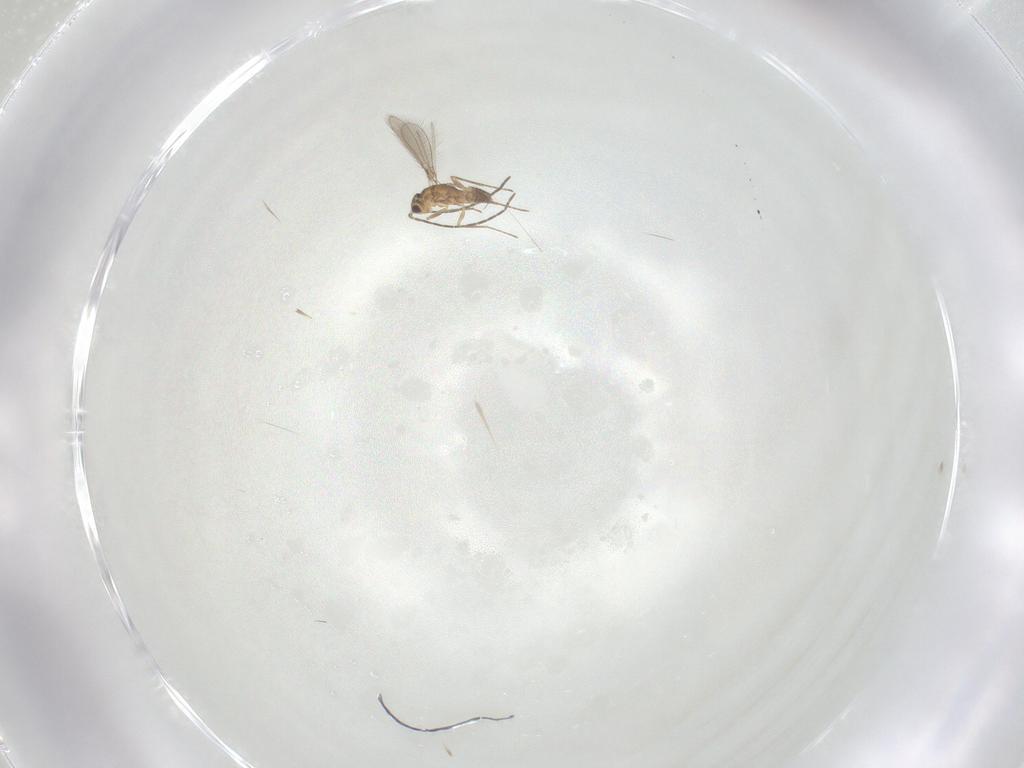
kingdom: Animalia
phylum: Arthropoda
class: Insecta
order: Hymenoptera
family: Mymaridae
